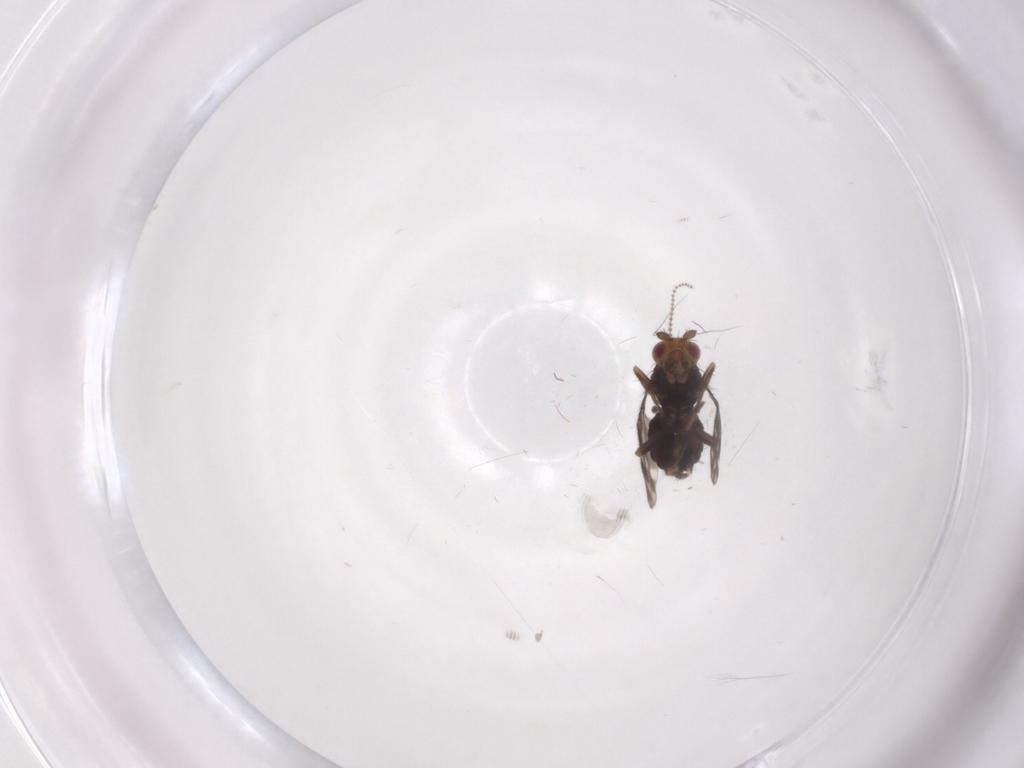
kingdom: Animalia
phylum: Arthropoda
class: Insecta
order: Diptera
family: Sphaeroceridae
